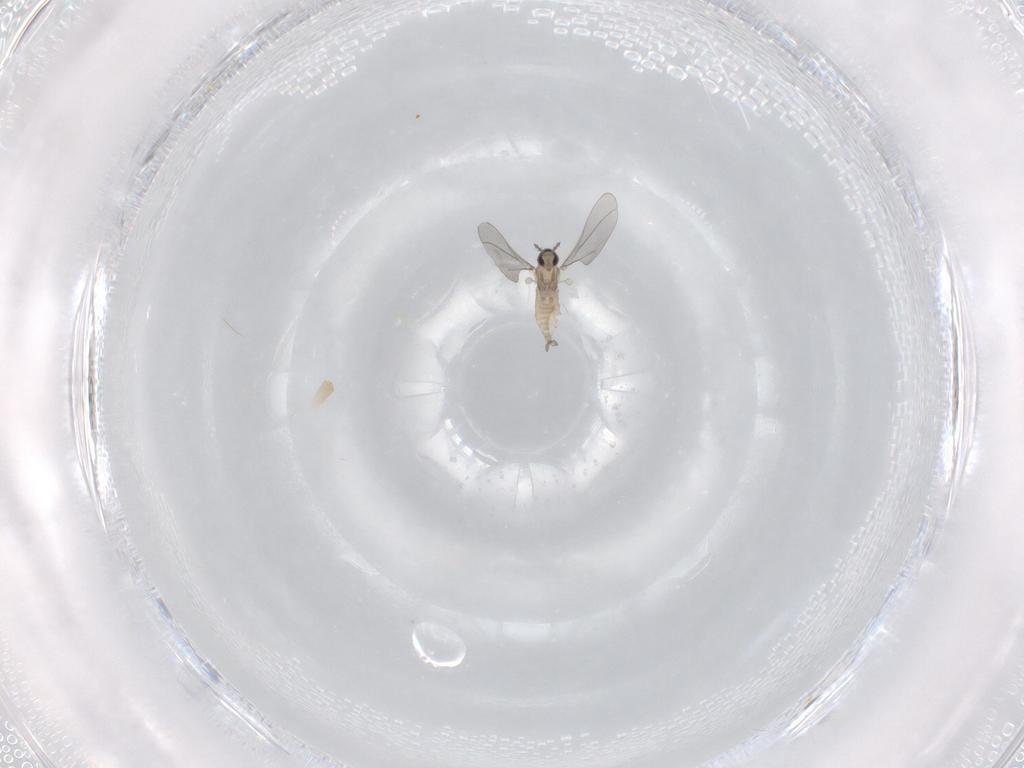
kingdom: Animalia
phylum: Arthropoda
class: Insecta
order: Diptera
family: Cecidomyiidae
